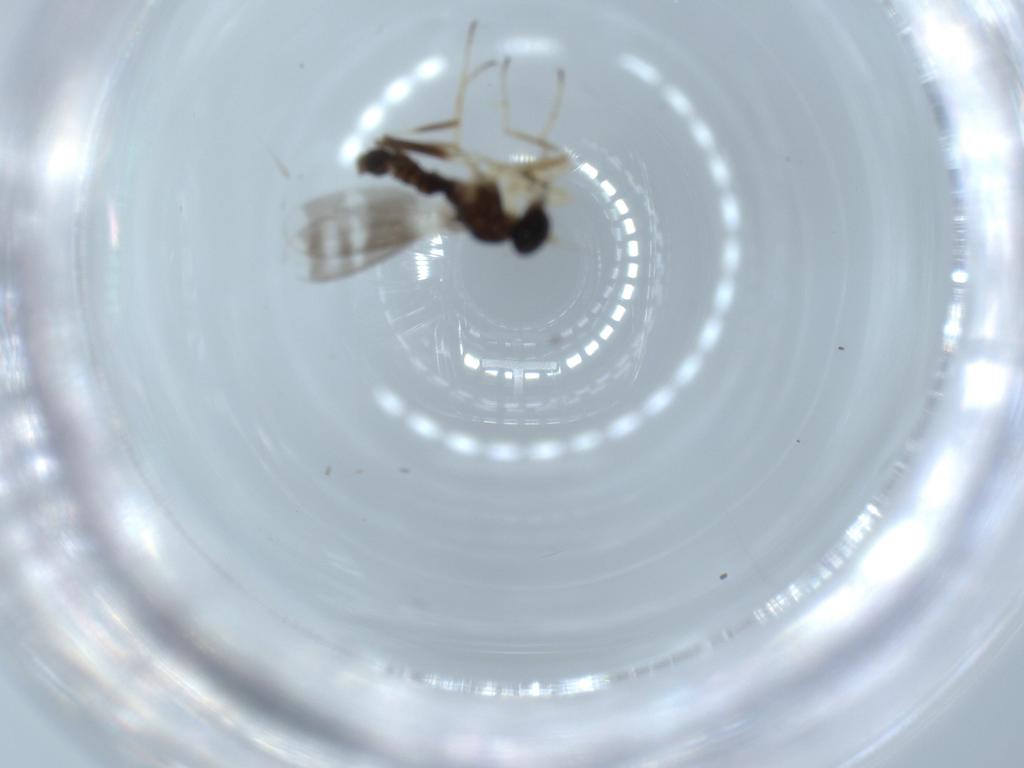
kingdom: Animalia
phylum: Arthropoda
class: Insecta
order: Diptera
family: Hybotidae
